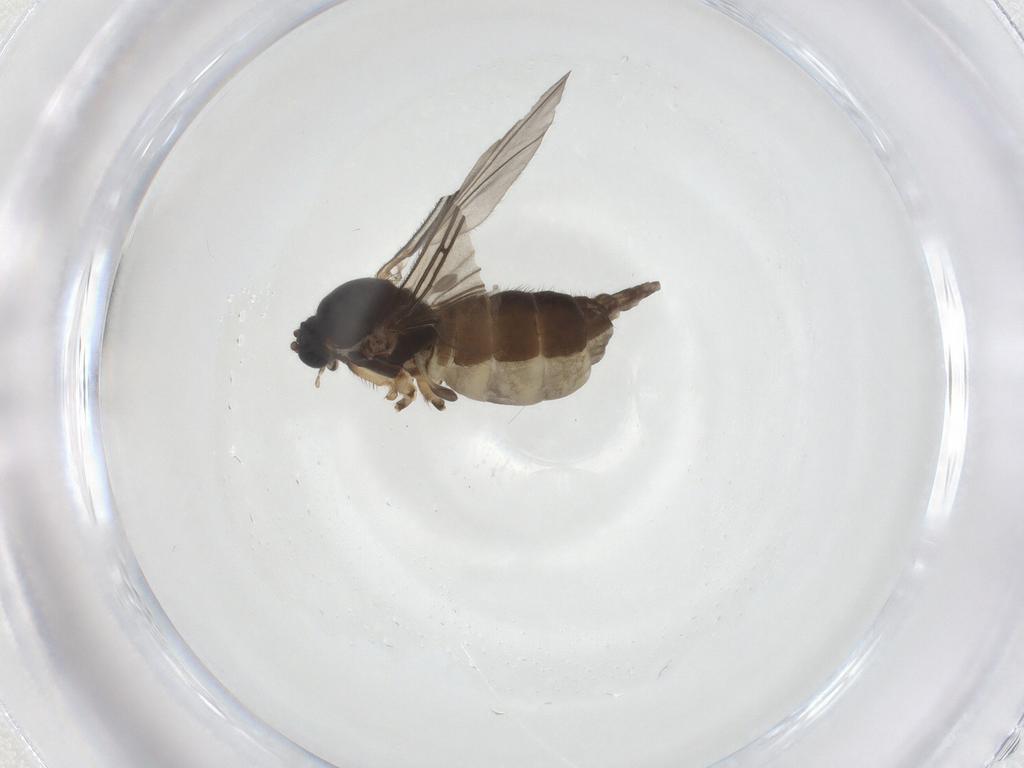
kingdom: Animalia
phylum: Arthropoda
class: Insecta
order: Diptera
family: Sciaridae
